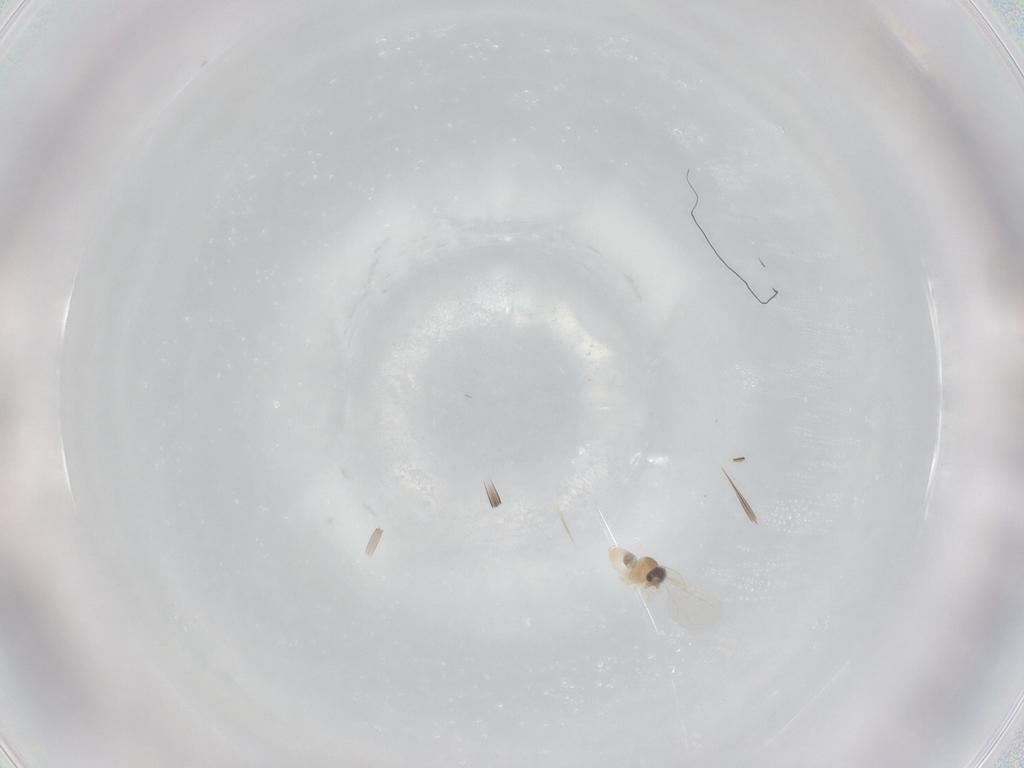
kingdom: Animalia
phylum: Arthropoda
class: Insecta
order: Diptera
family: Cecidomyiidae
